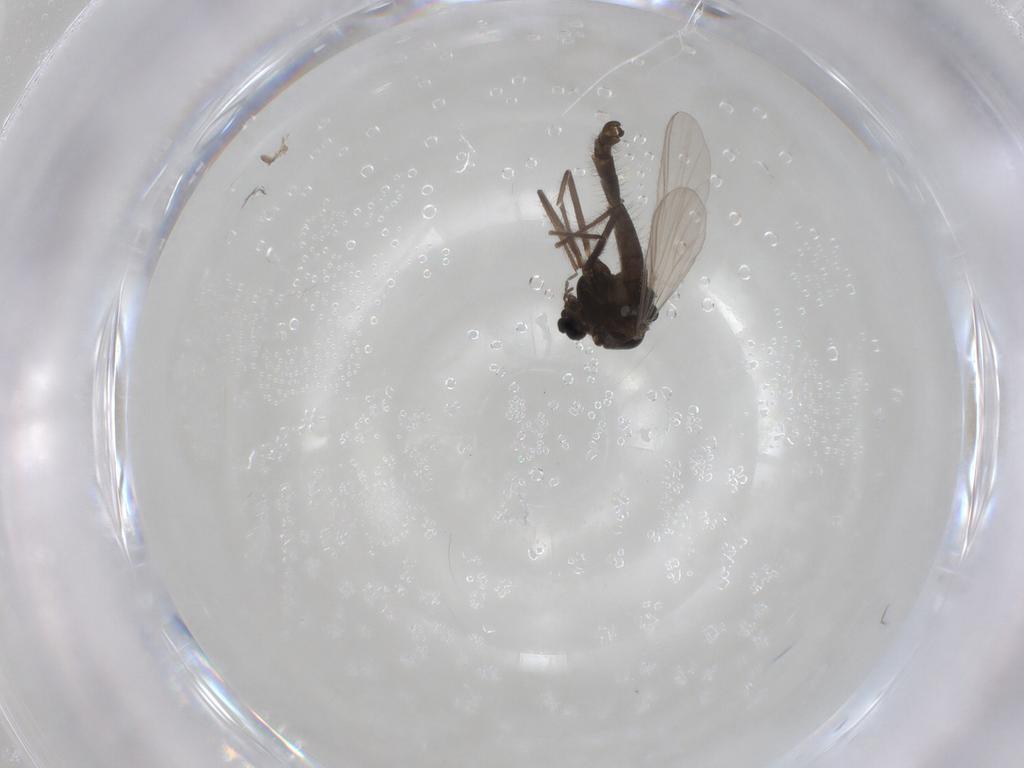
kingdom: Animalia
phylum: Arthropoda
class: Insecta
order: Diptera
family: Chironomidae
